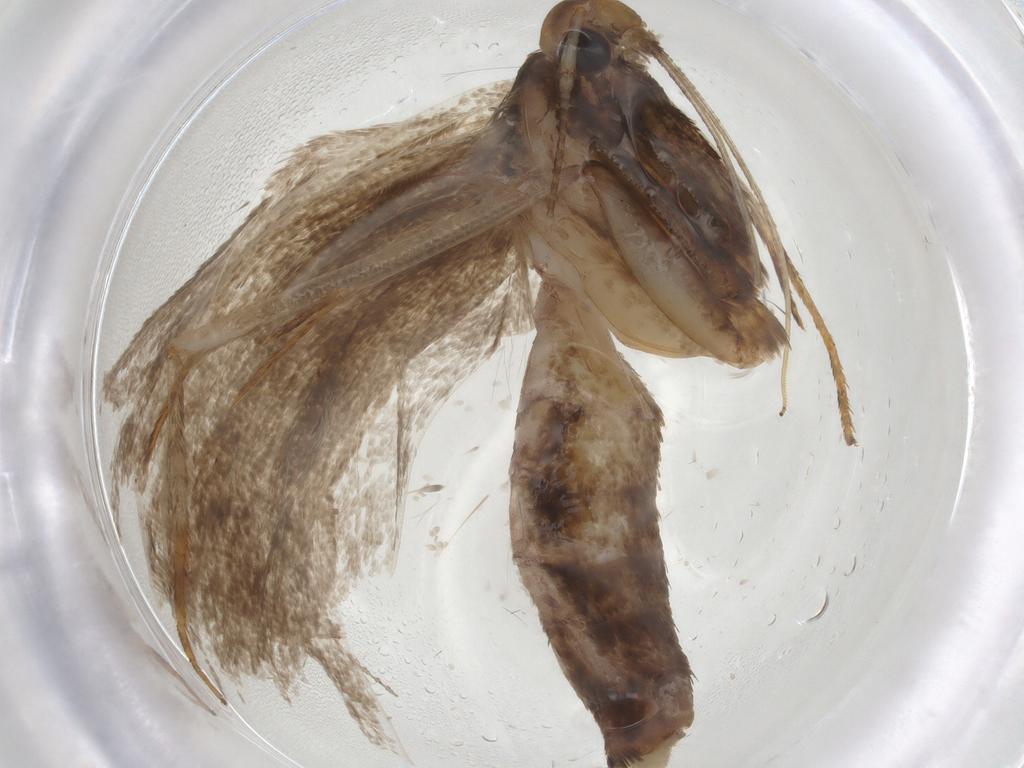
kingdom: Animalia
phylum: Arthropoda
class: Insecta
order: Lepidoptera
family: Gelechiidae
